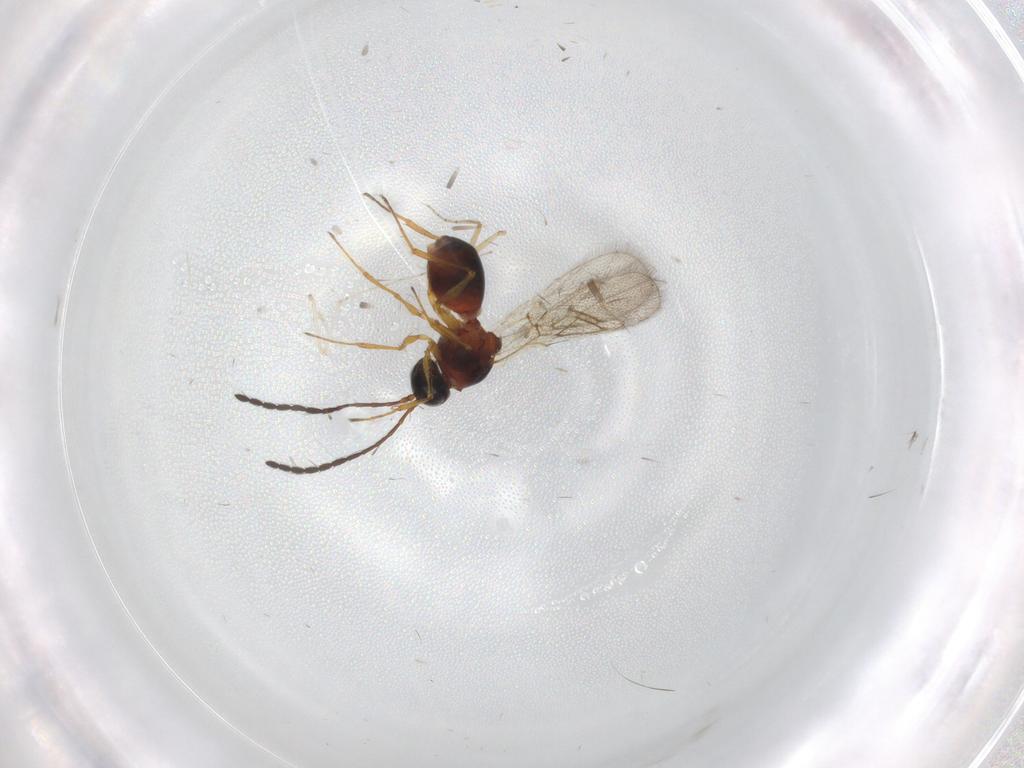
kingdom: Animalia
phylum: Arthropoda
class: Insecta
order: Hymenoptera
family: Figitidae
